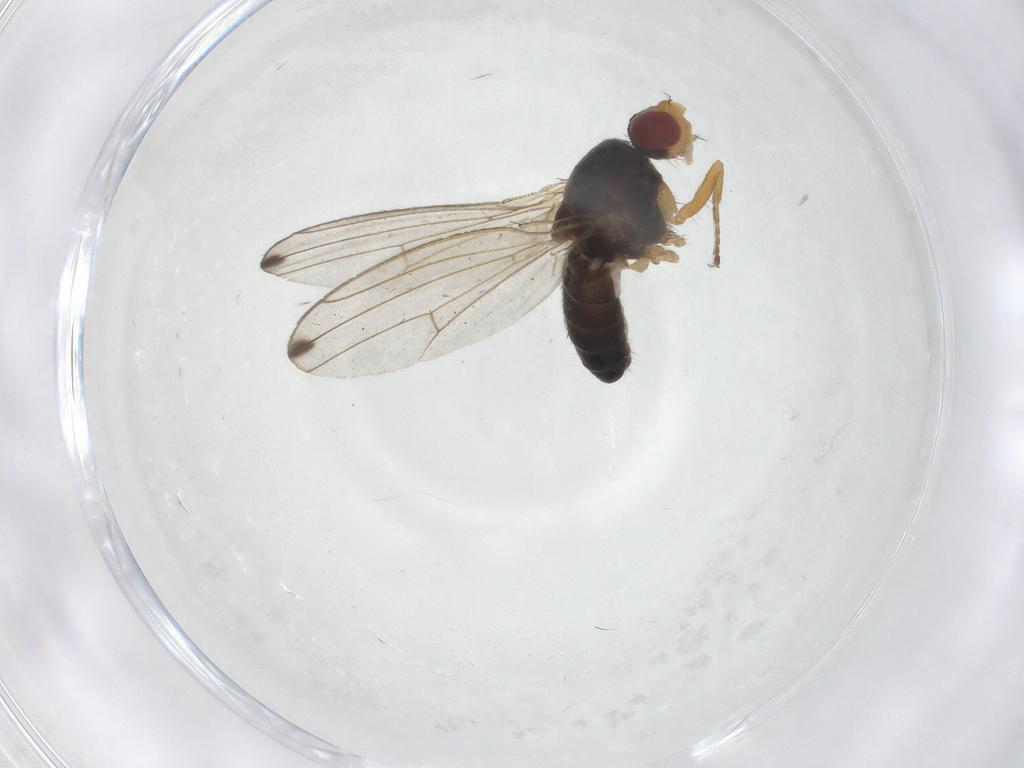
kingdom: Animalia
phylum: Arthropoda
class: Insecta
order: Diptera
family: Drosophilidae
